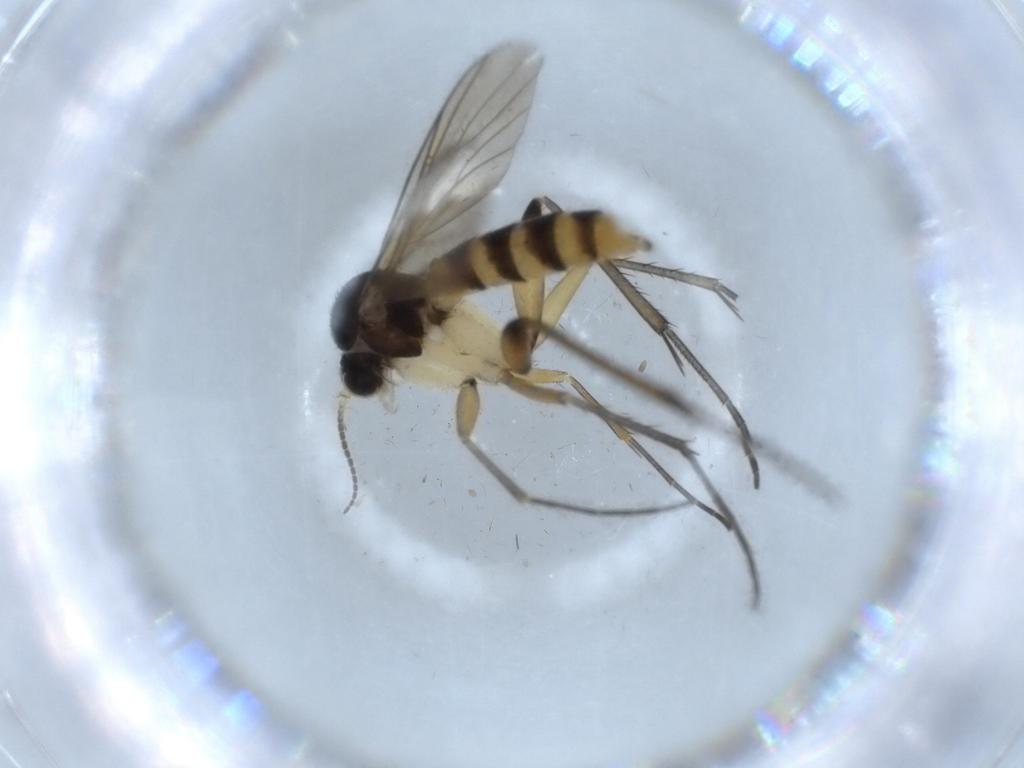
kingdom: Animalia
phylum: Arthropoda
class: Insecta
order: Diptera
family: Mycetophilidae
